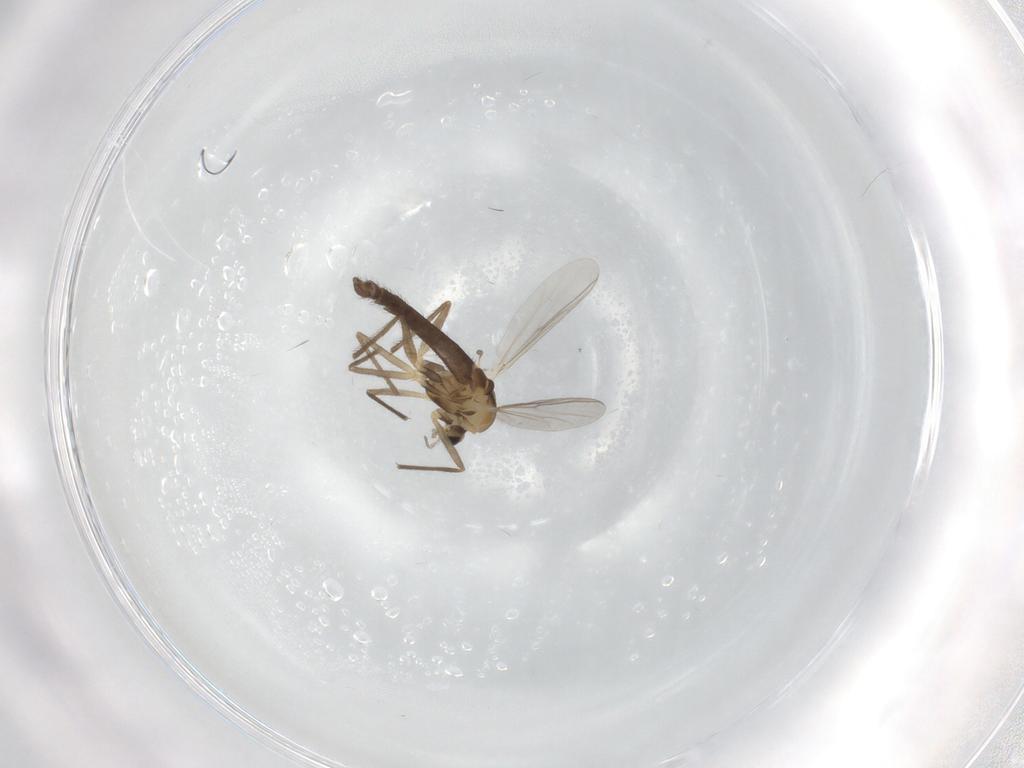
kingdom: Animalia
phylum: Arthropoda
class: Insecta
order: Diptera
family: Chironomidae
